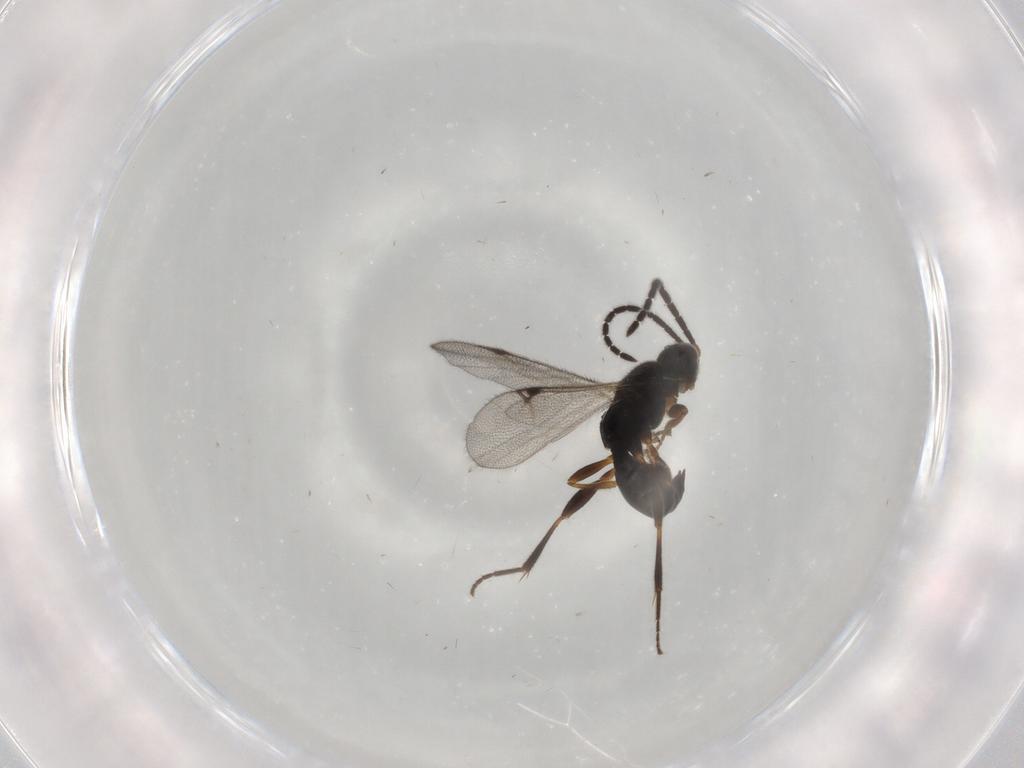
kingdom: Animalia
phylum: Arthropoda
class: Insecta
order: Hymenoptera
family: Proctotrupidae
